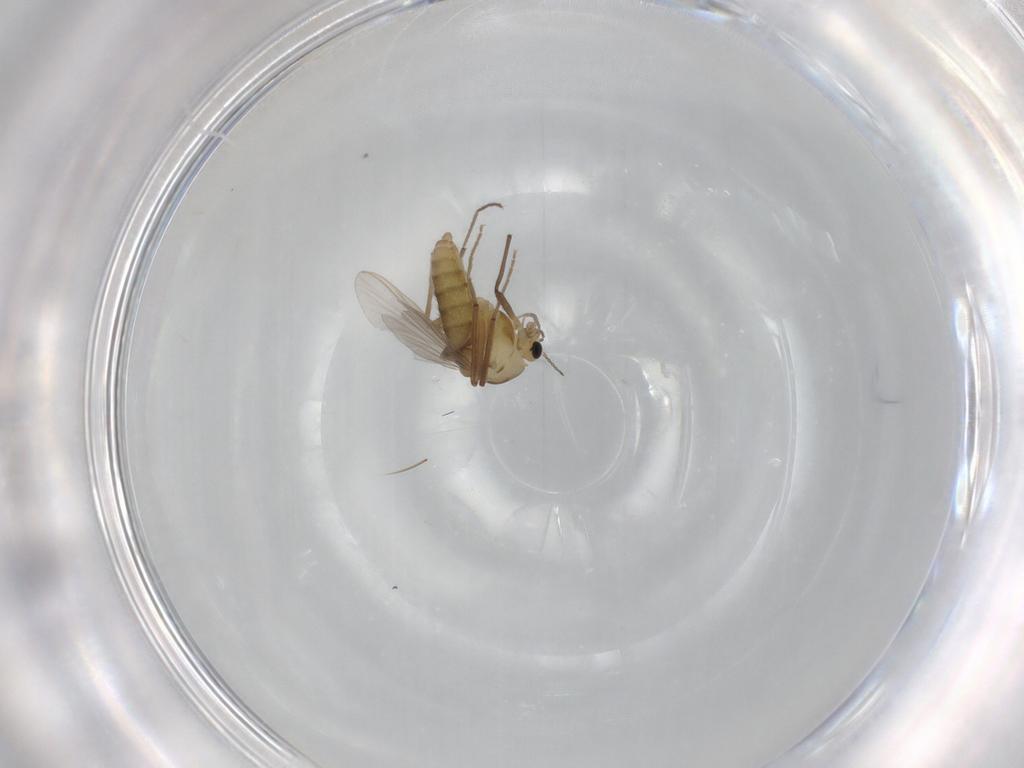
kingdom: Animalia
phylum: Arthropoda
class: Insecta
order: Diptera
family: Chironomidae
